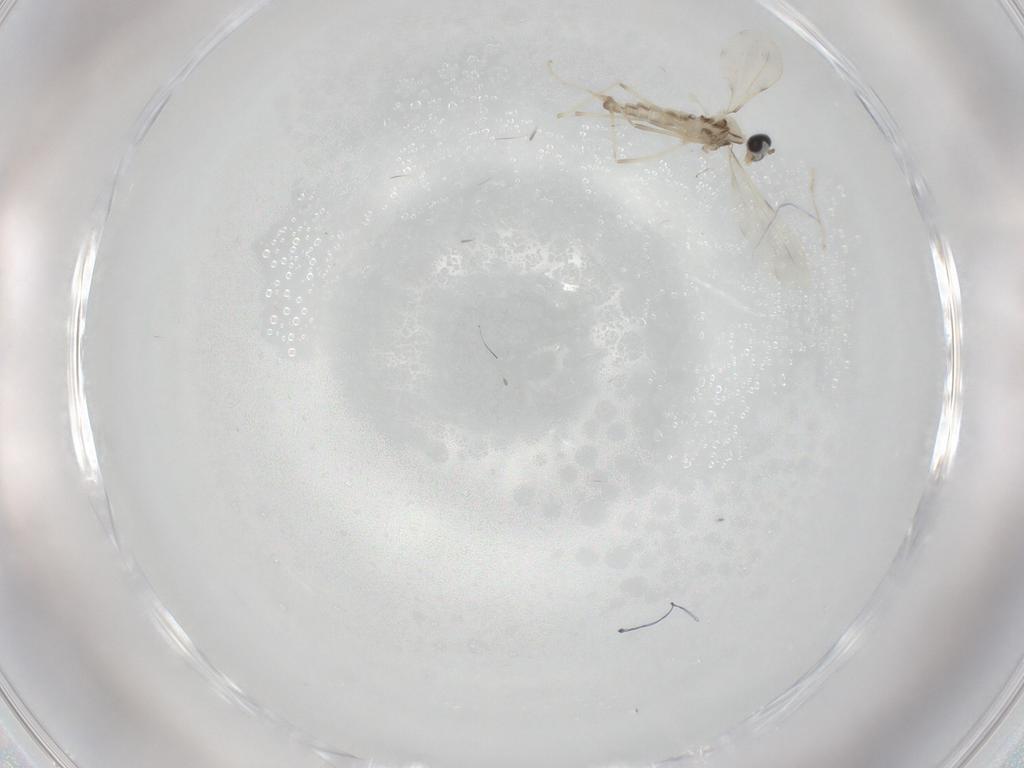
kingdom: Animalia
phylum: Arthropoda
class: Insecta
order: Diptera
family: Cecidomyiidae
